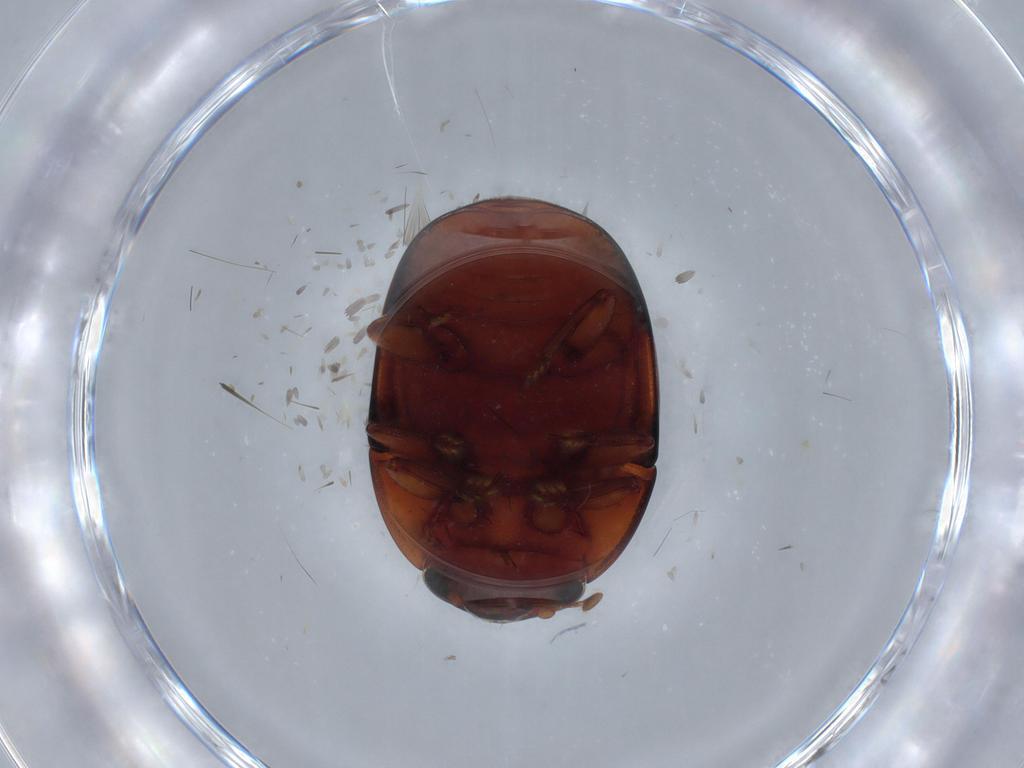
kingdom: Animalia
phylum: Arthropoda
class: Insecta
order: Coleoptera
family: Nitidulidae
